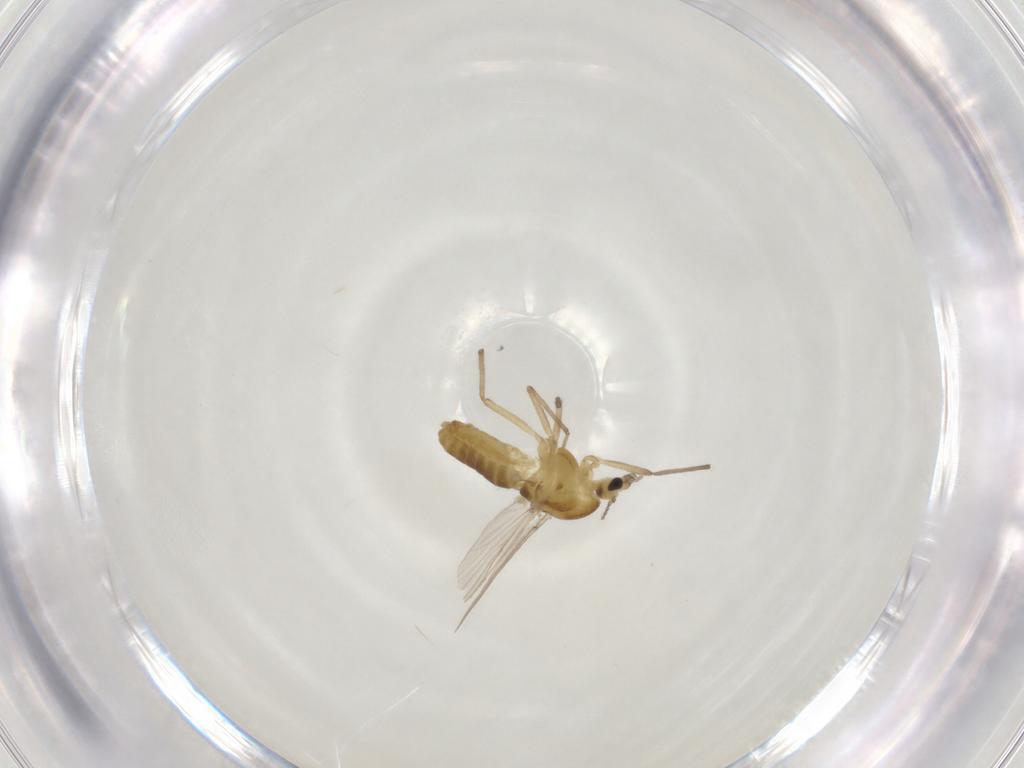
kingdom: Animalia
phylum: Arthropoda
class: Insecta
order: Diptera
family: Chironomidae
